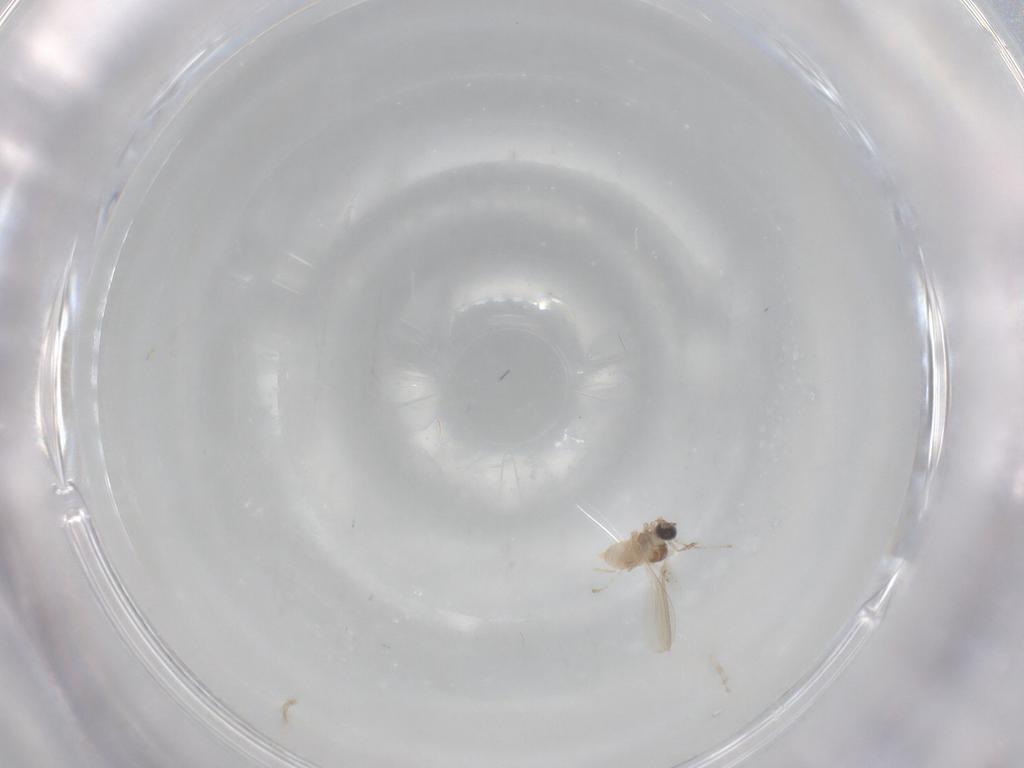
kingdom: Animalia
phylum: Arthropoda
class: Insecta
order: Diptera
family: Cecidomyiidae
